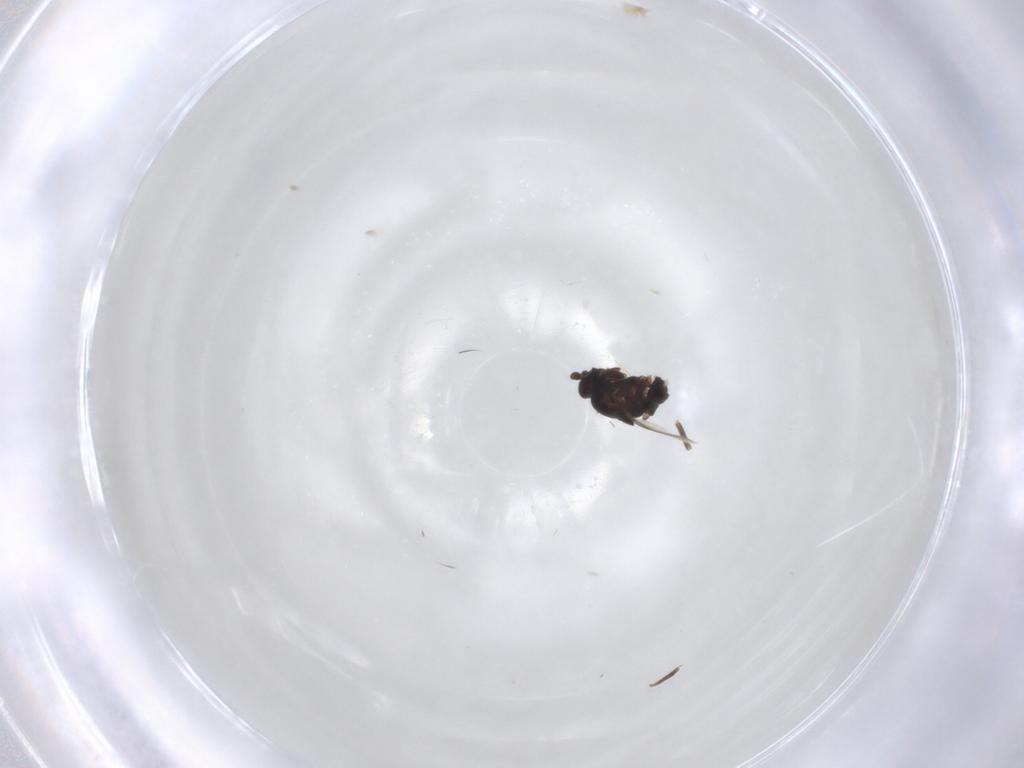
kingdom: Animalia
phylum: Arthropoda
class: Insecta
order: Diptera
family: Sphaeroceridae
